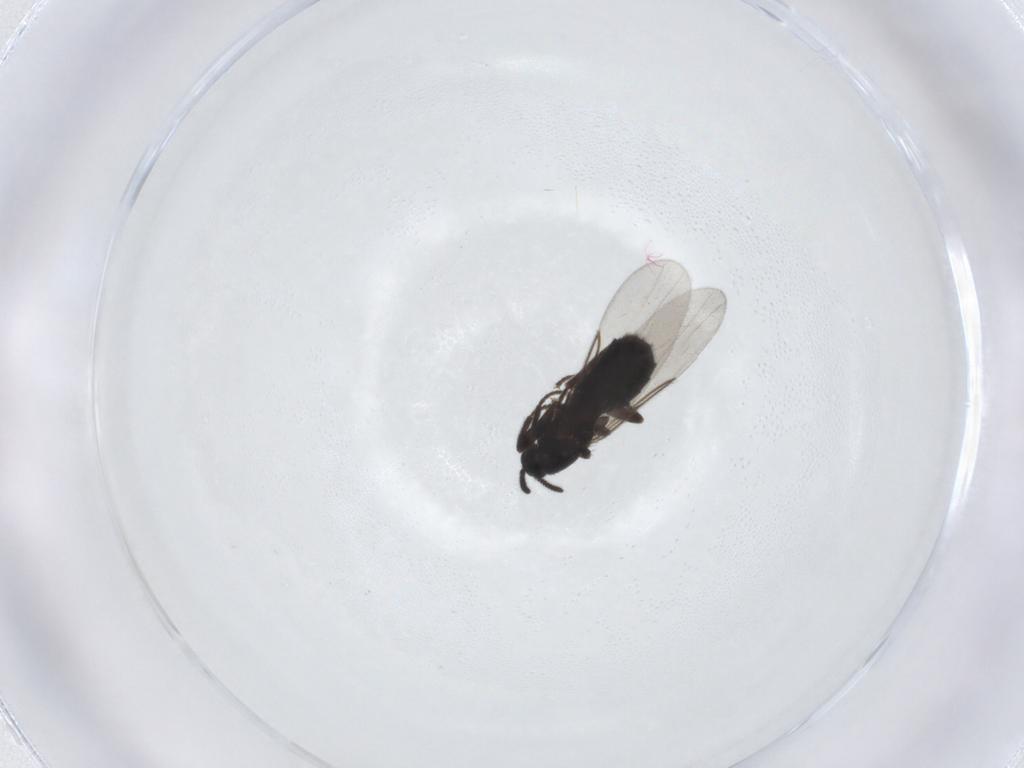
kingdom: Animalia
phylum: Arthropoda
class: Insecta
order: Diptera
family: Scatopsidae
